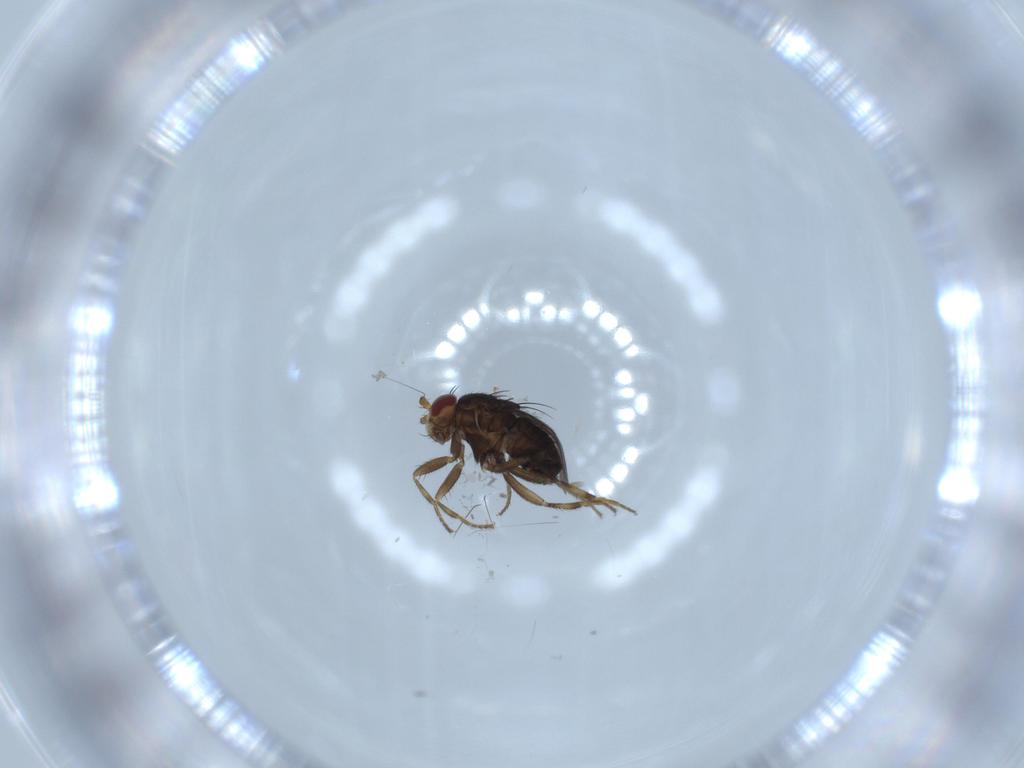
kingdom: Animalia
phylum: Arthropoda
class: Insecta
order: Diptera
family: Sphaeroceridae
